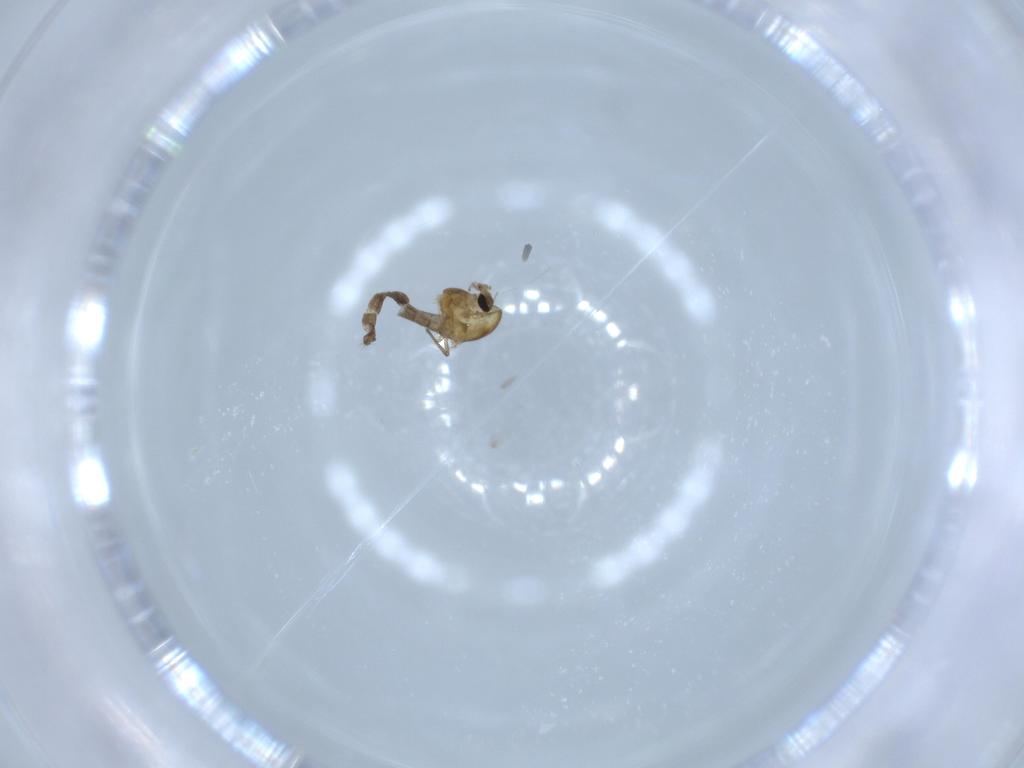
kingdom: Animalia
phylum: Arthropoda
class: Insecta
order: Diptera
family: Chironomidae
